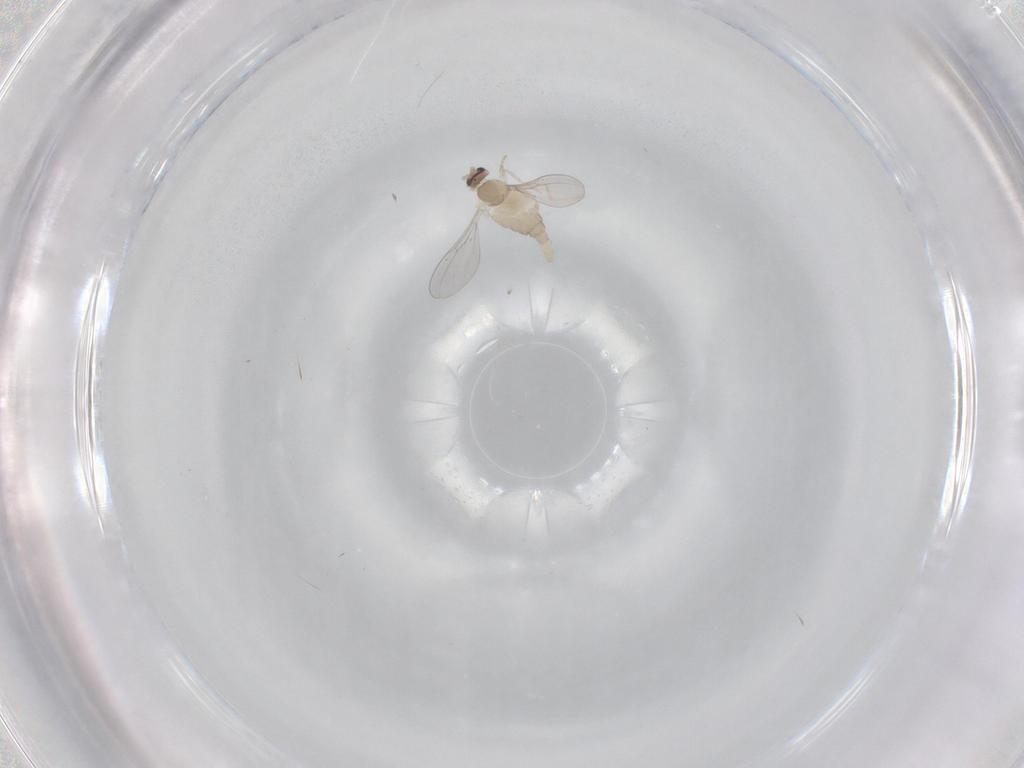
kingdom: Animalia
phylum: Arthropoda
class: Insecta
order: Diptera
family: Cecidomyiidae
